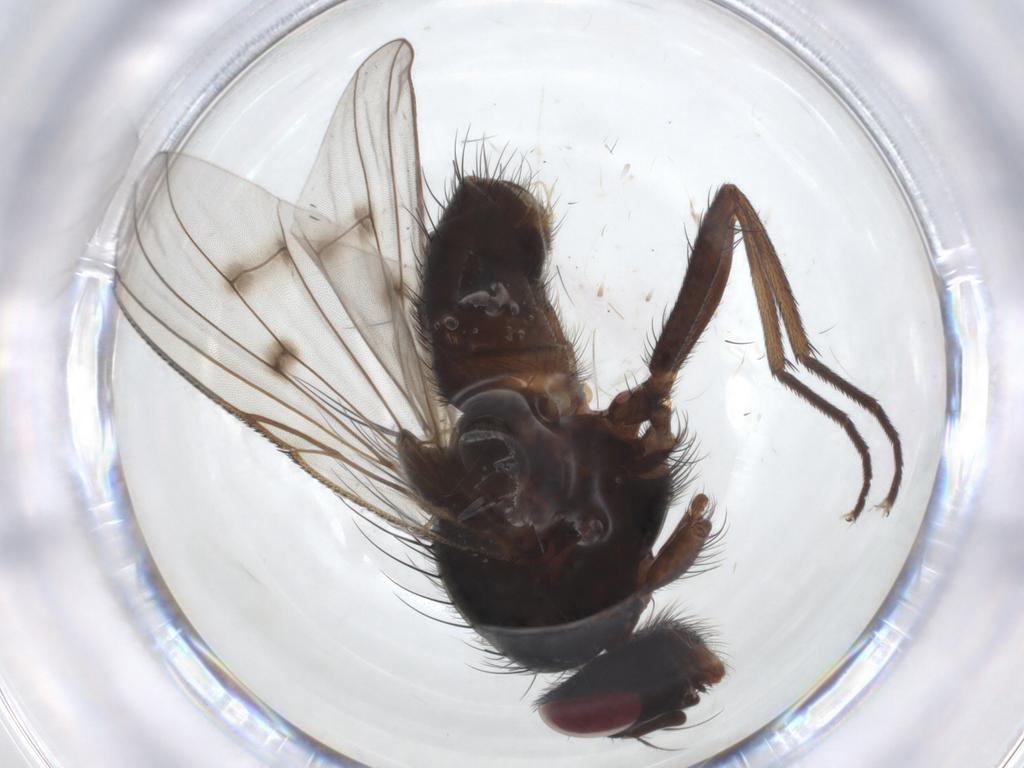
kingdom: Animalia
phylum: Arthropoda
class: Insecta
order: Diptera
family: Muscidae
